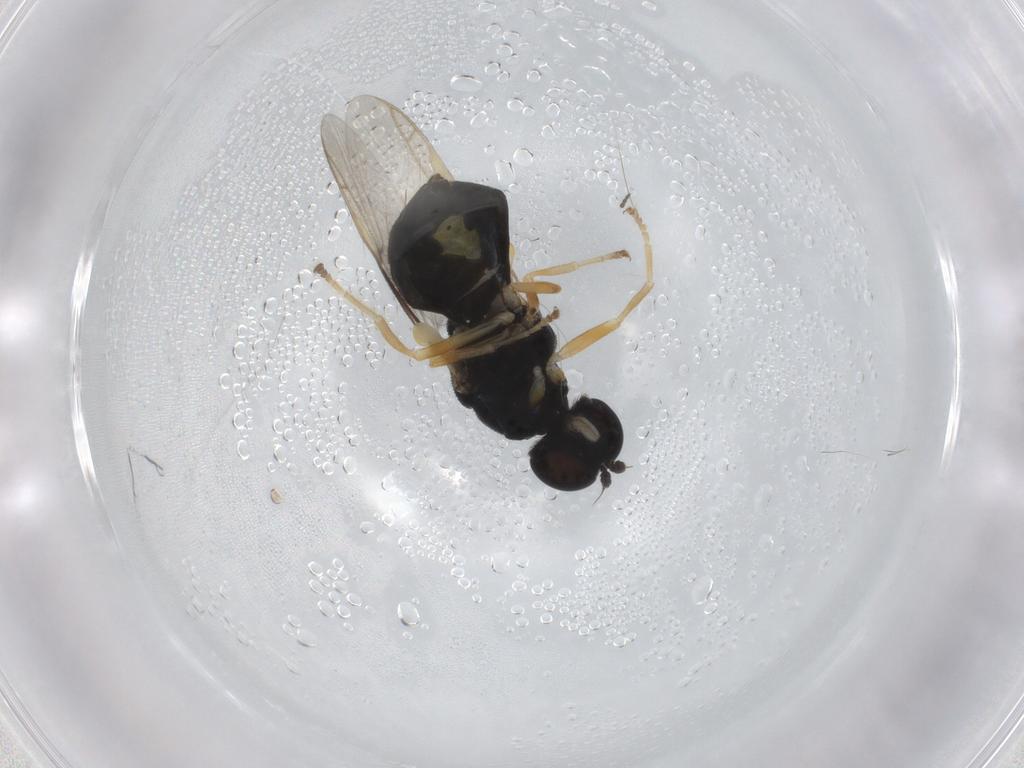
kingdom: Animalia
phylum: Arthropoda
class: Insecta
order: Diptera
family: Stratiomyidae
